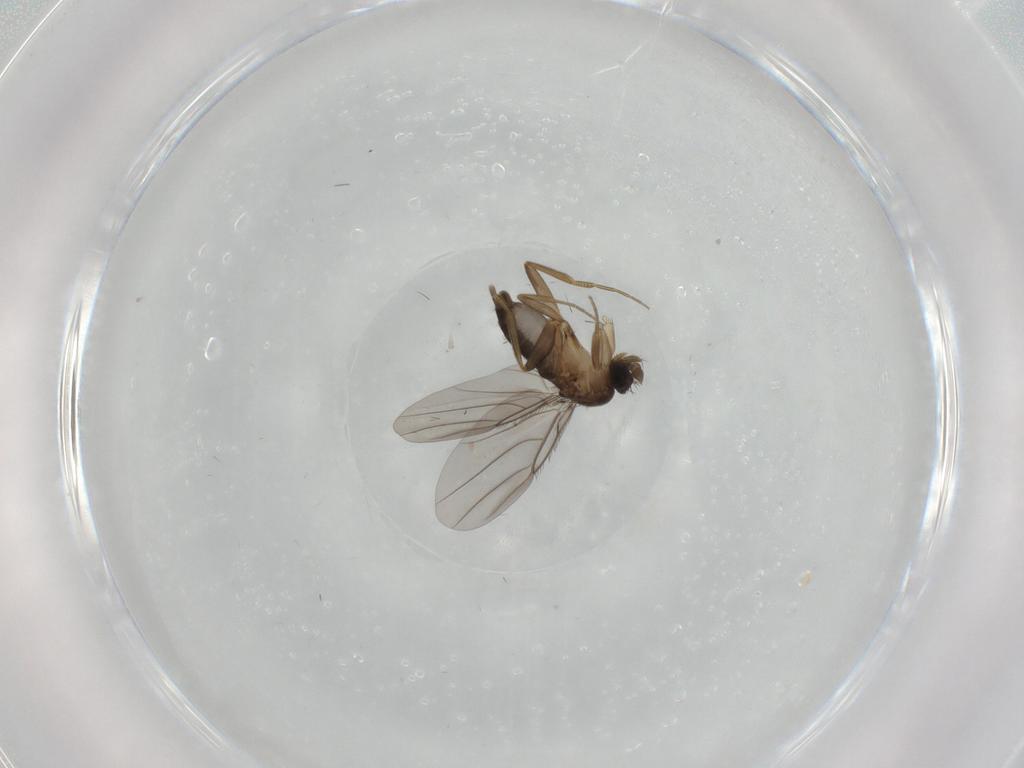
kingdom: Animalia
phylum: Arthropoda
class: Insecta
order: Diptera
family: Phoridae
